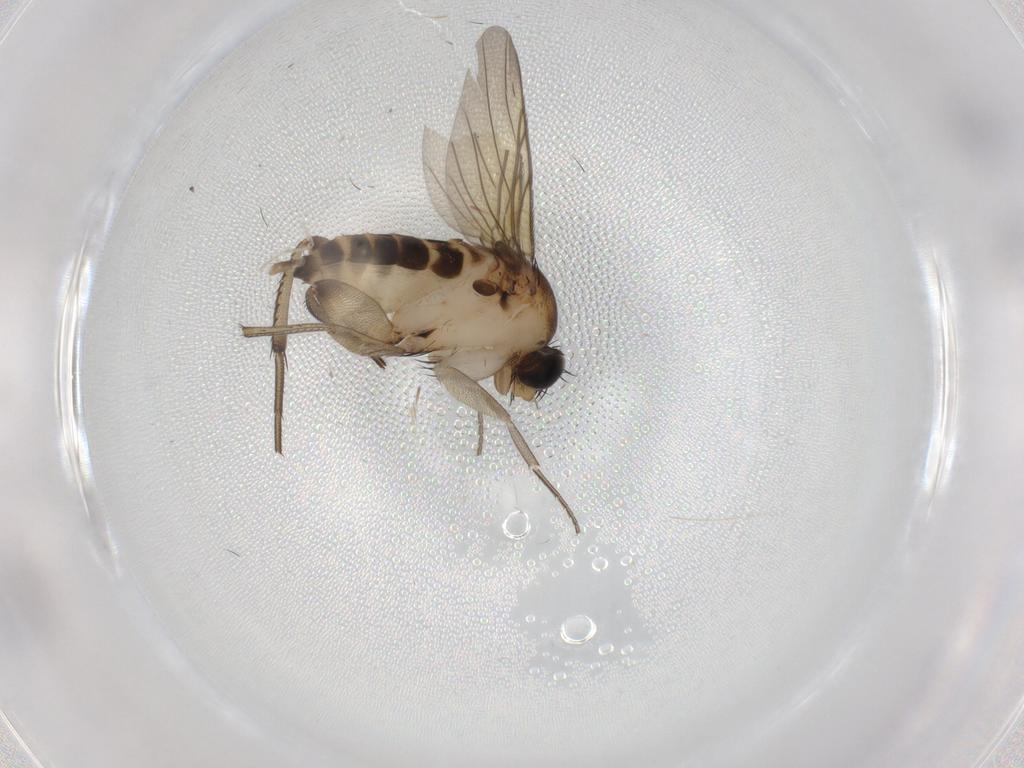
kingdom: Animalia
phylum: Arthropoda
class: Insecta
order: Diptera
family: Phoridae
